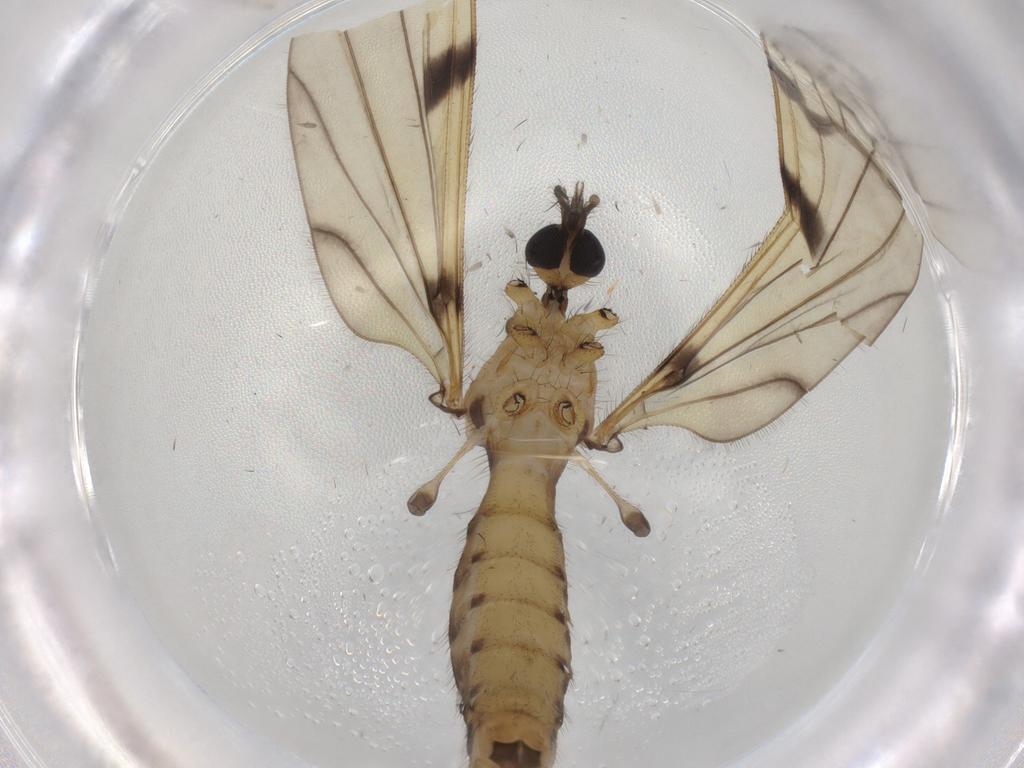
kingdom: Animalia
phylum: Arthropoda
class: Insecta
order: Diptera
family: Limoniidae
